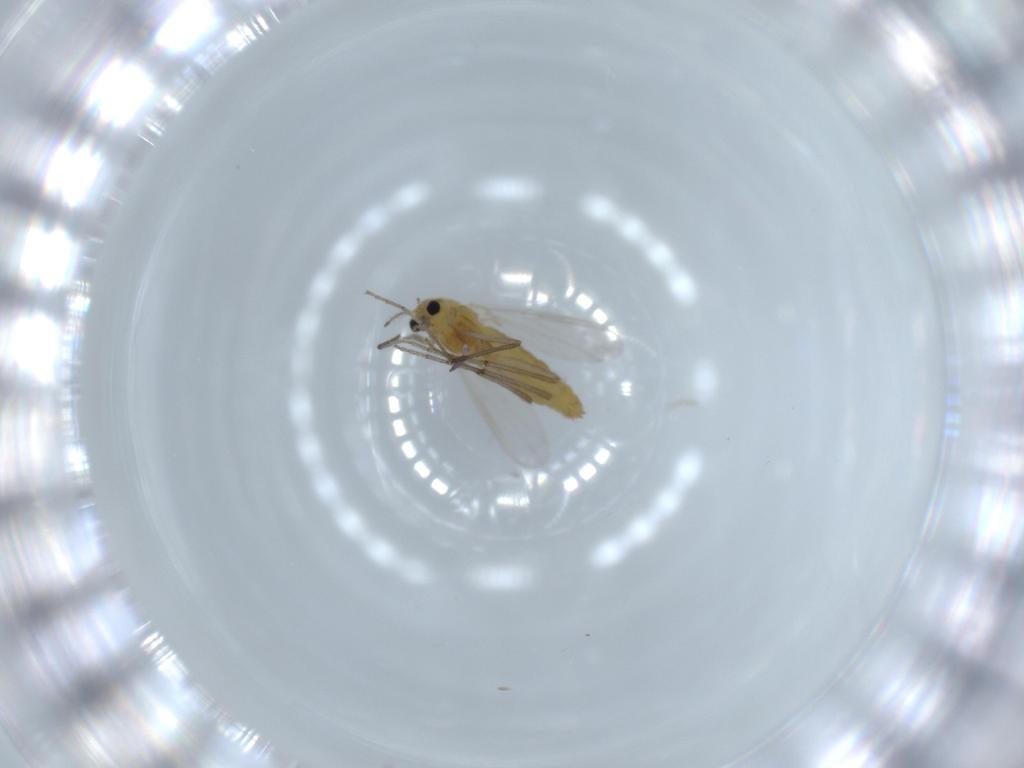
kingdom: Animalia
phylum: Arthropoda
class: Insecta
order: Diptera
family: Chironomidae
